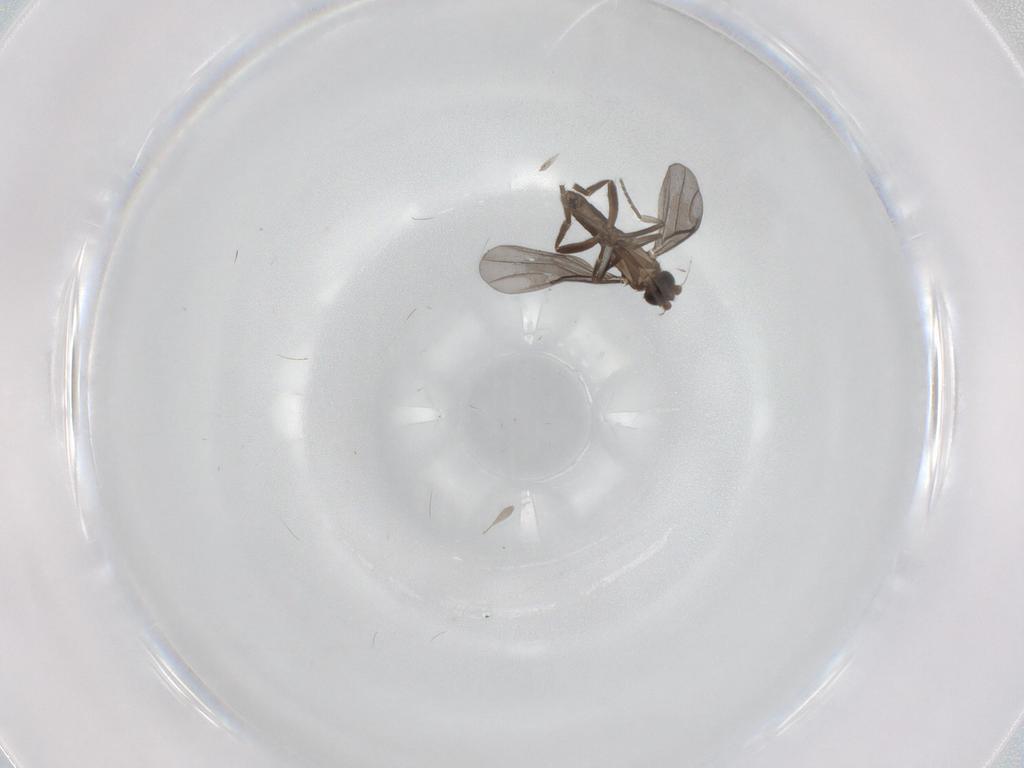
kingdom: Animalia
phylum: Arthropoda
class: Insecta
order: Diptera
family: Phoridae
